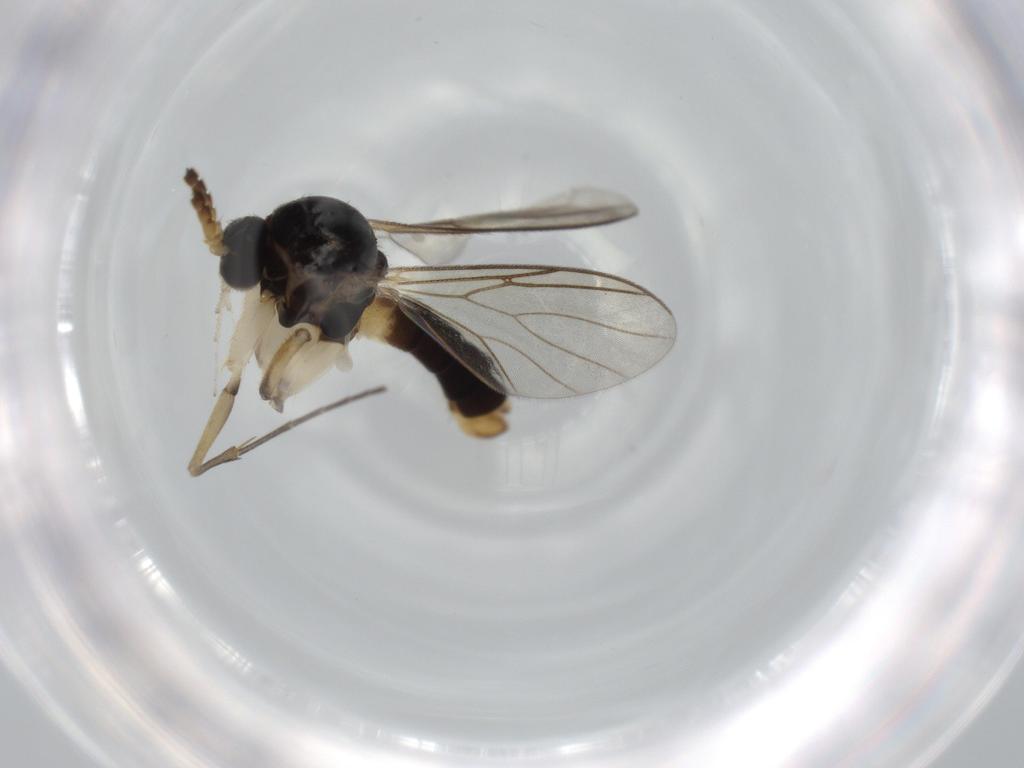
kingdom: Animalia
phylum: Arthropoda
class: Insecta
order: Diptera
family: Mycetophilidae
